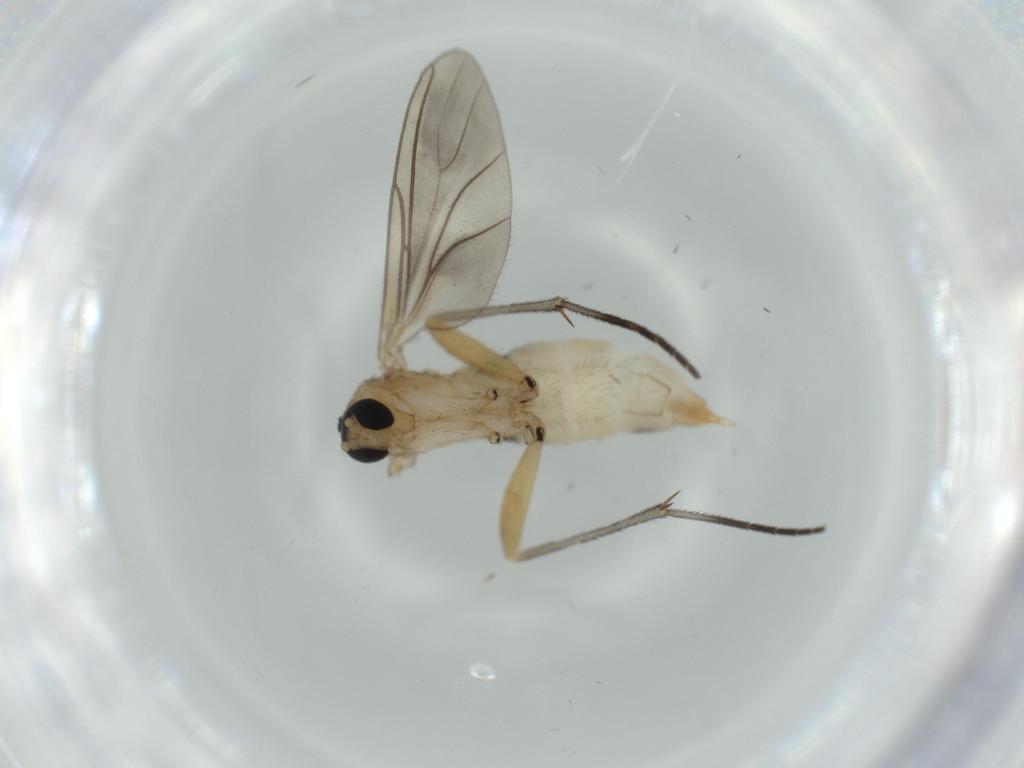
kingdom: Animalia
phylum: Arthropoda
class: Insecta
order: Diptera
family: Sciaridae
